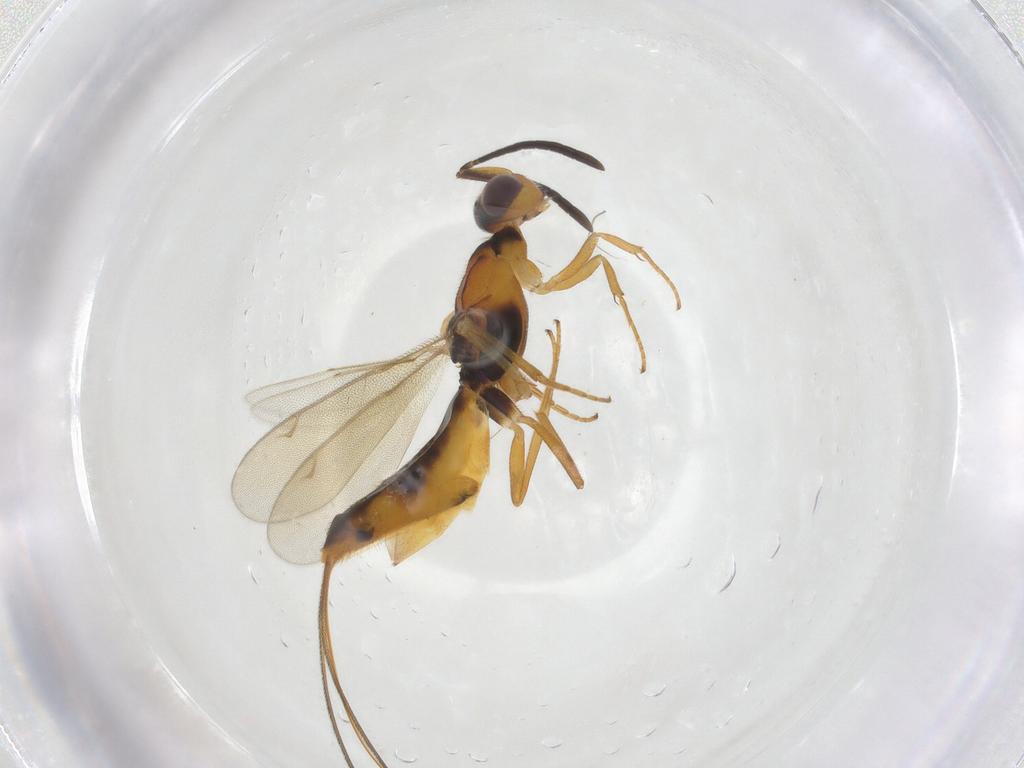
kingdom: Animalia
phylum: Arthropoda
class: Insecta
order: Hymenoptera
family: Eupelmidae
